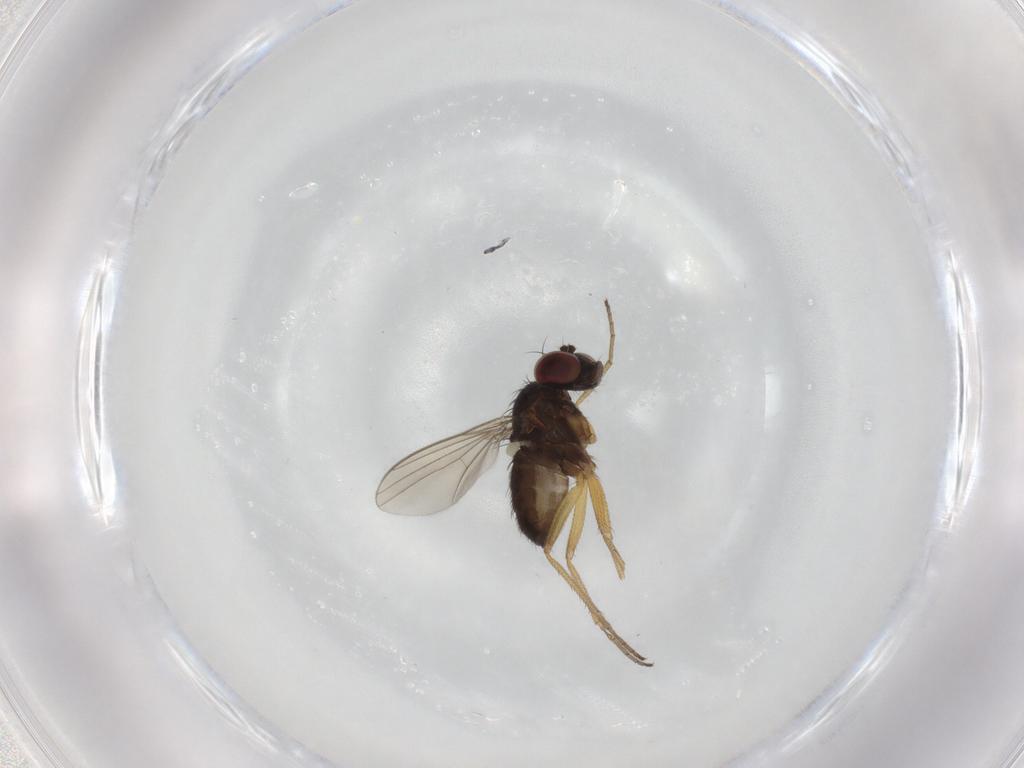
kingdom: Animalia
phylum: Arthropoda
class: Insecta
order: Diptera
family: Dolichopodidae
